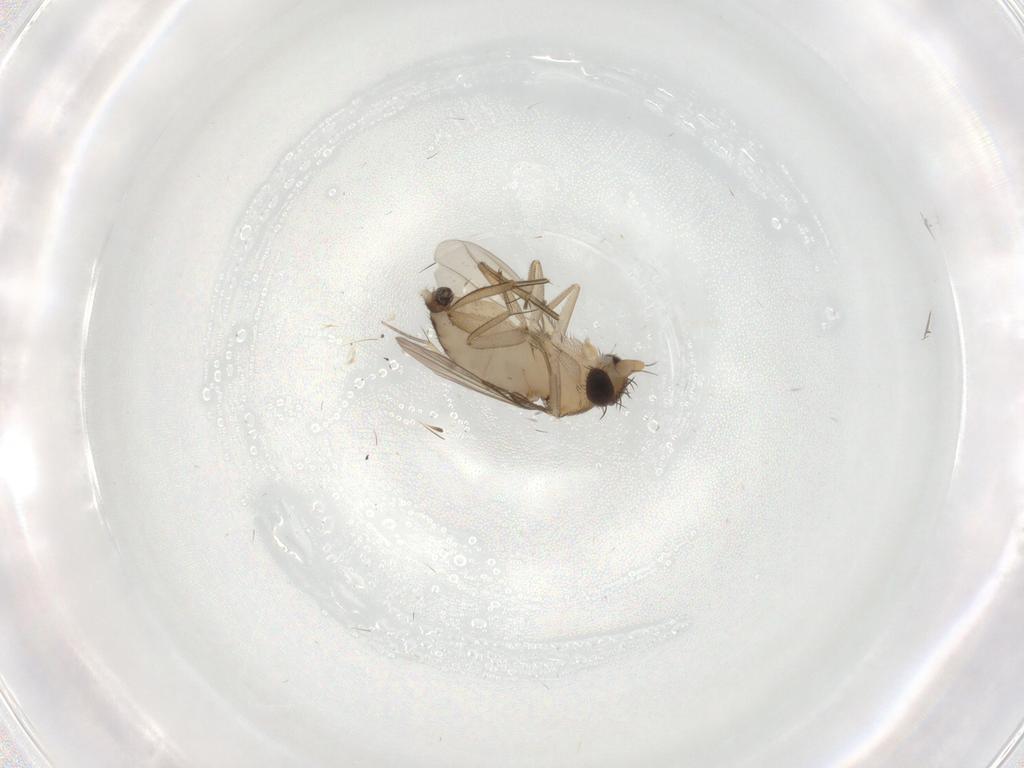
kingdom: Animalia
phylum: Arthropoda
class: Insecta
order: Diptera
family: Phoridae
